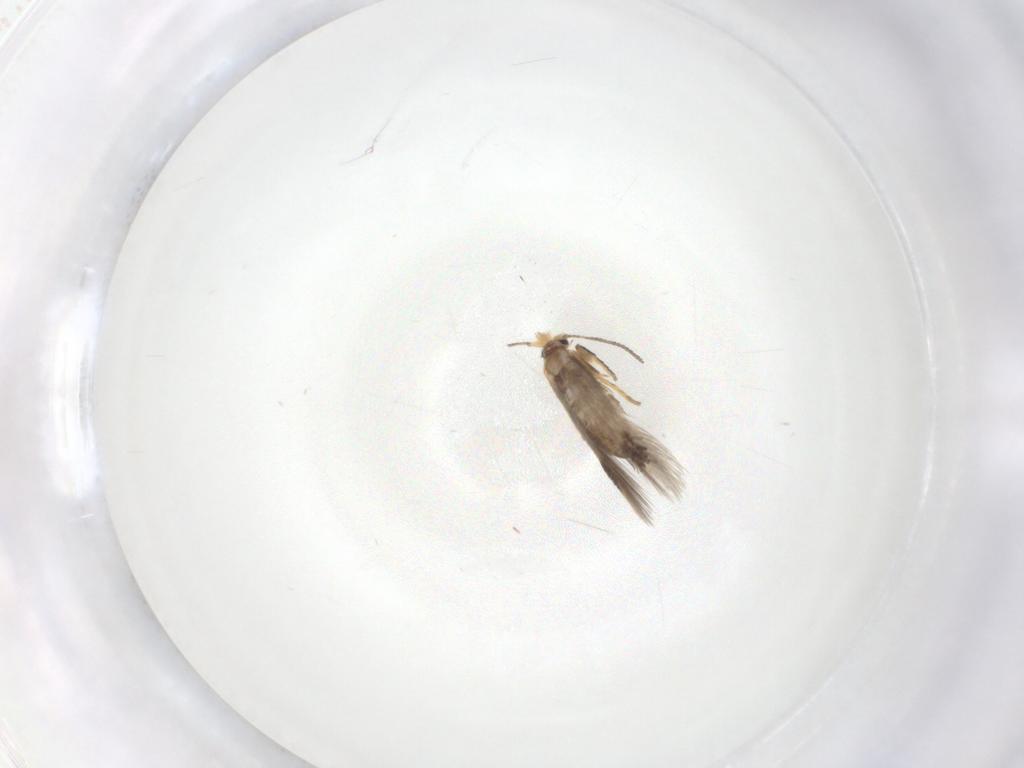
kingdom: Animalia
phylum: Arthropoda
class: Insecta
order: Lepidoptera
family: Nepticulidae
